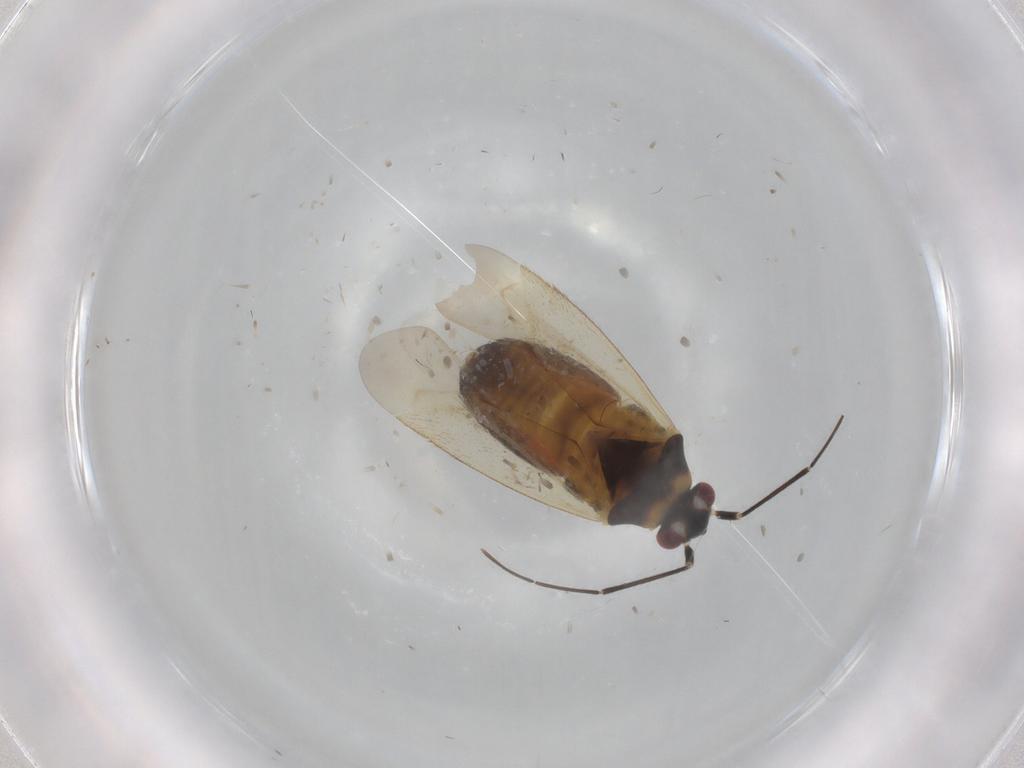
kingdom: Animalia
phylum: Arthropoda
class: Insecta
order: Hemiptera
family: Miridae
